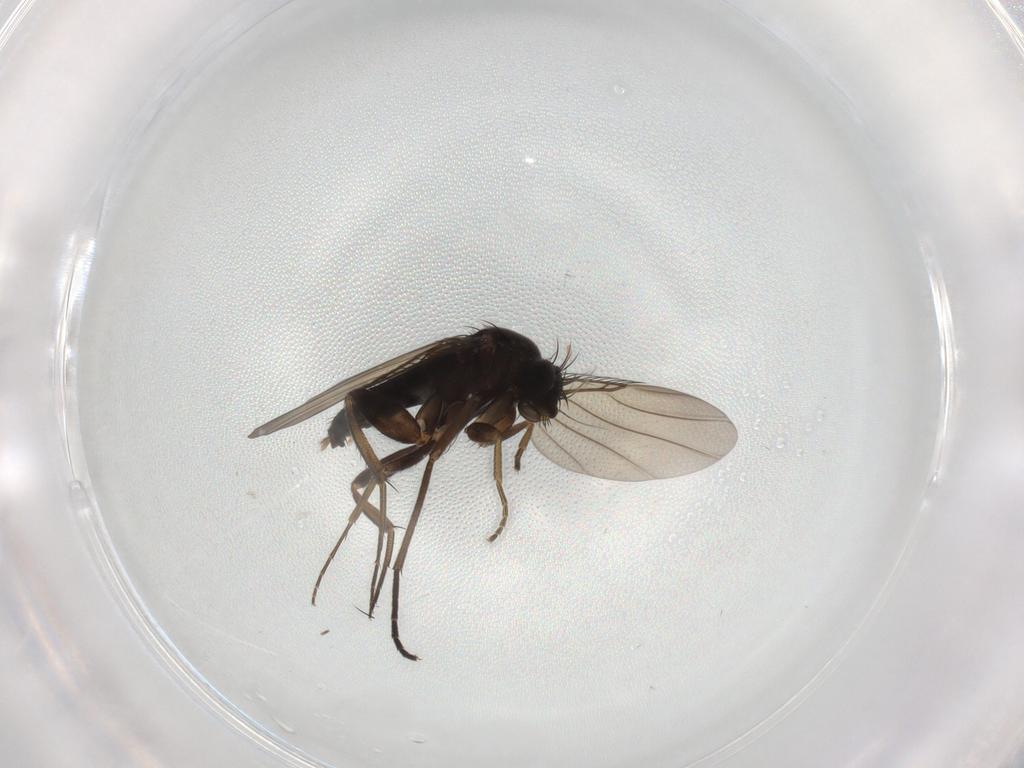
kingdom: Animalia
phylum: Arthropoda
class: Insecta
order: Diptera
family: Phoridae
